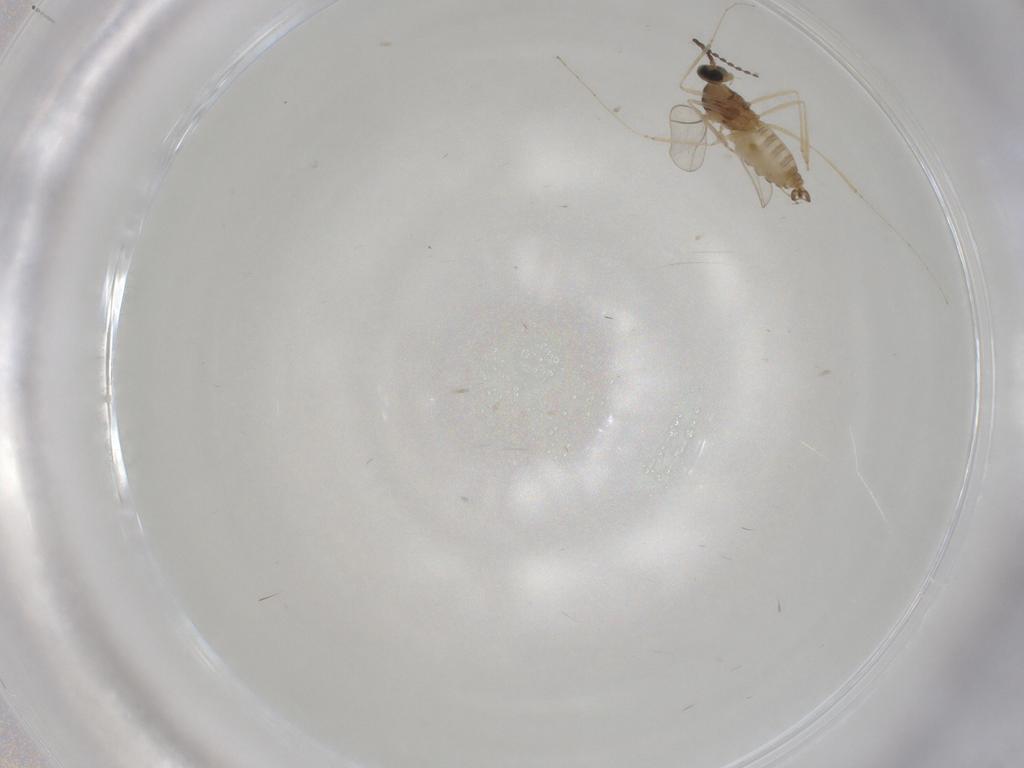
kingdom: Animalia
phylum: Arthropoda
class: Insecta
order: Diptera
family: Cecidomyiidae
